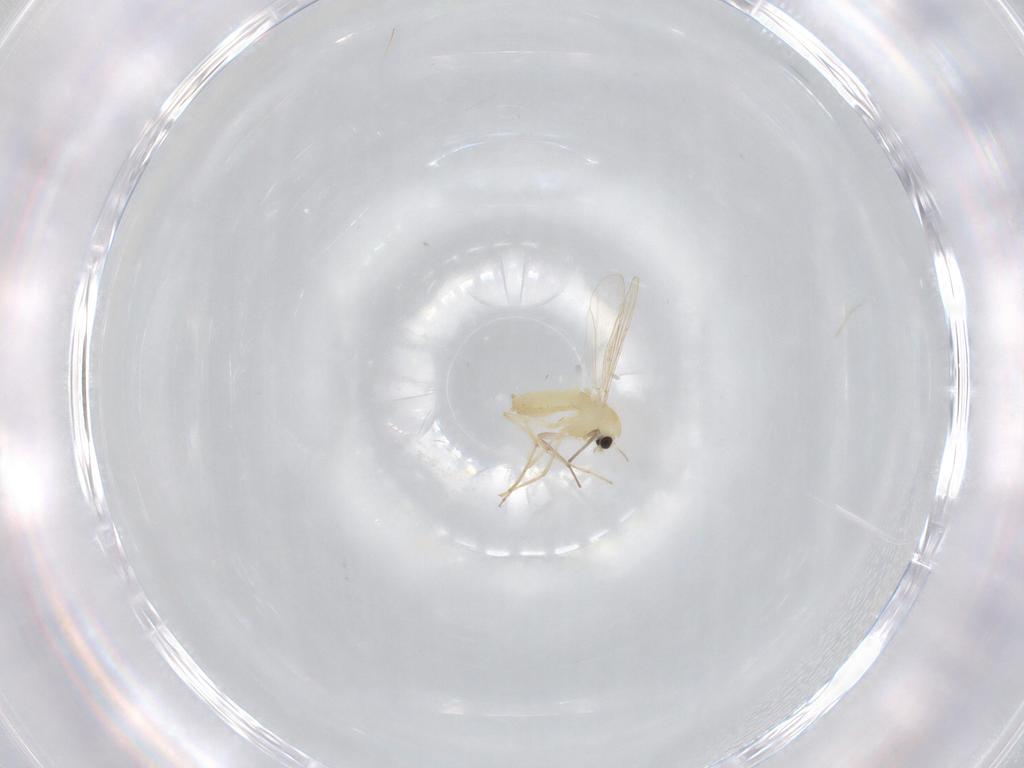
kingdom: Animalia
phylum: Arthropoda
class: Insecta
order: Diptera
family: Chironomidae
